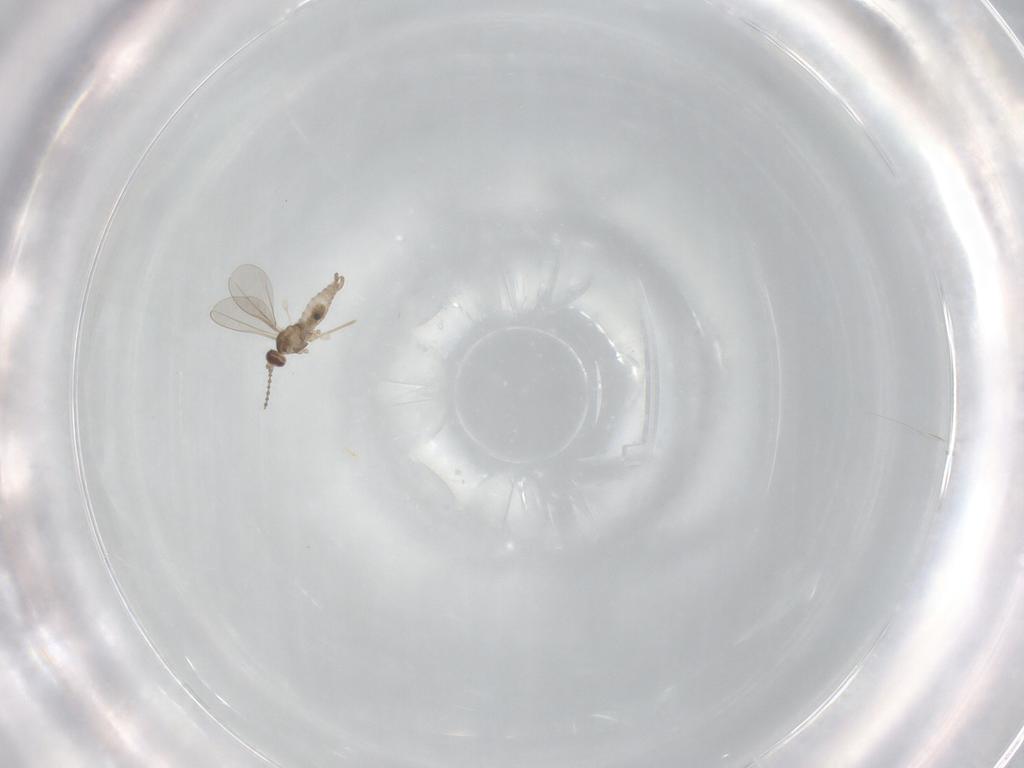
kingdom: Animalia
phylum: Arthropoda
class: Insecta
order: Diptera
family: Cecidomyiidae
